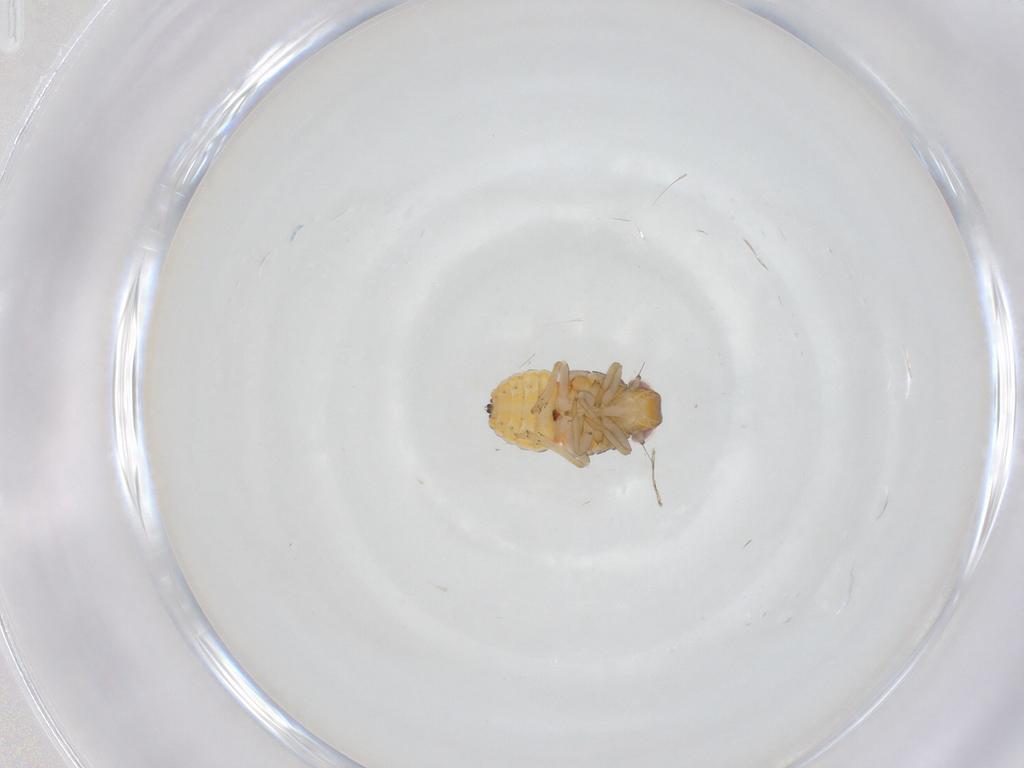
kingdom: Animalia
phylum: Arthropoda
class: Insecta
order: Hemiptera
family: Issidae
